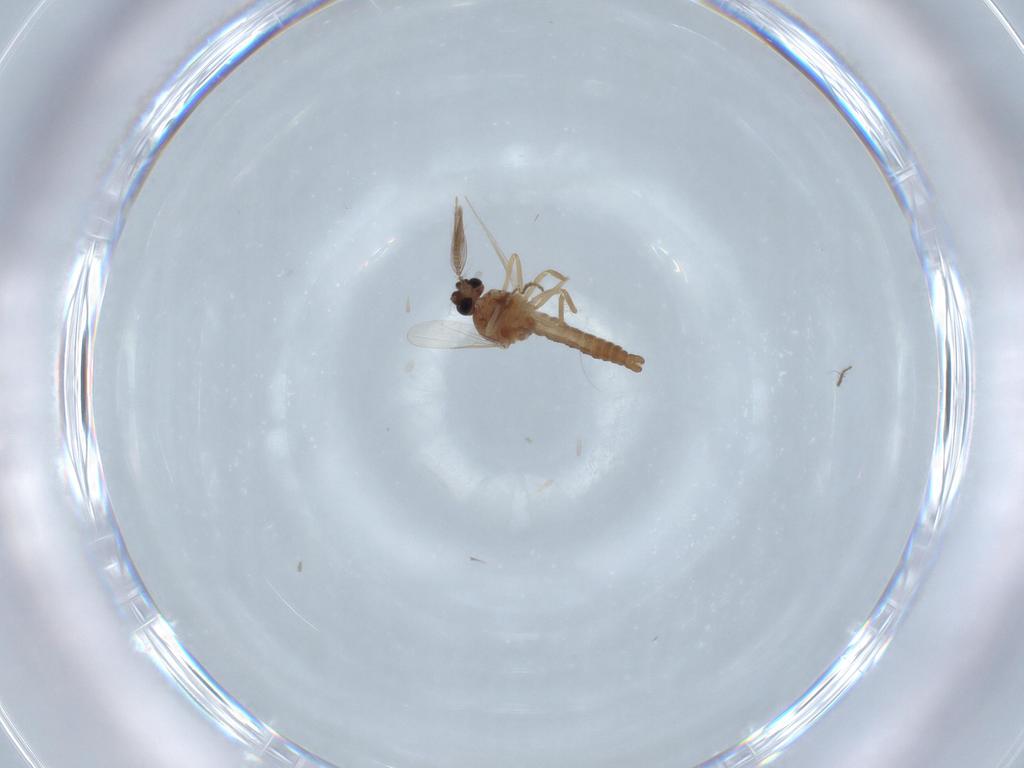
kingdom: Animalia
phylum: Arthropoda
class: Insecta
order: Diptera
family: Ceratopogonidae
